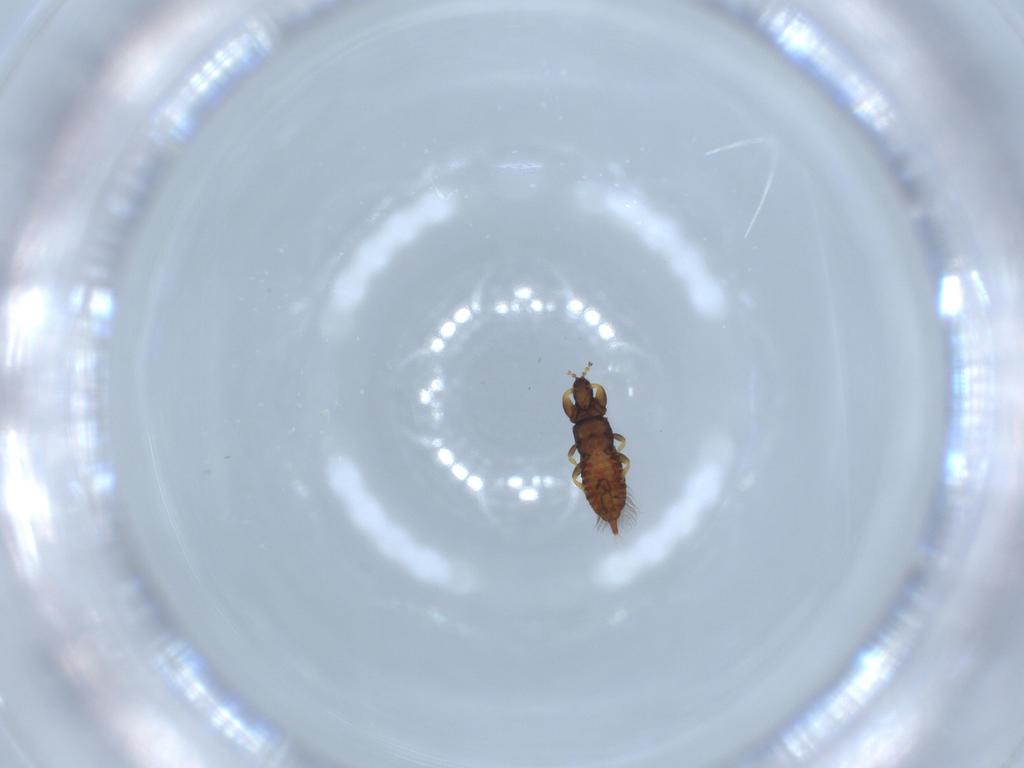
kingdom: Animalia
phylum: Arthropoda
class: Insecta
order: Thysanoptera
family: Phlaeothripidae
